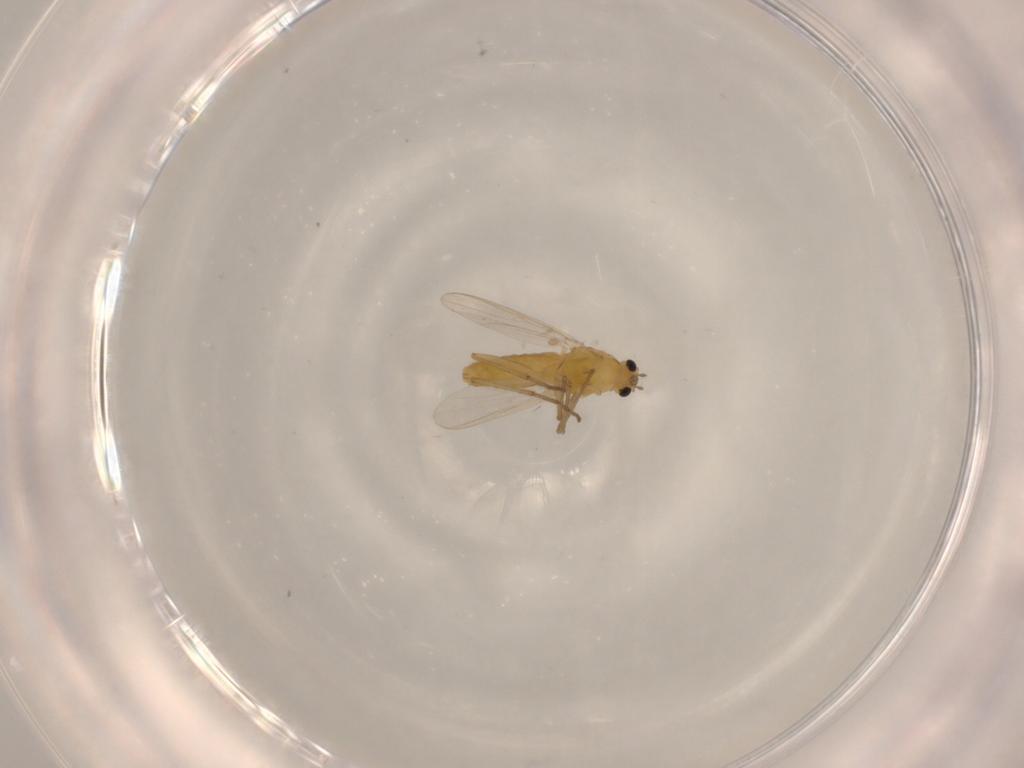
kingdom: Animalia
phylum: Arthropoda
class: Insecta
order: Diptera
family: Chironomidae
